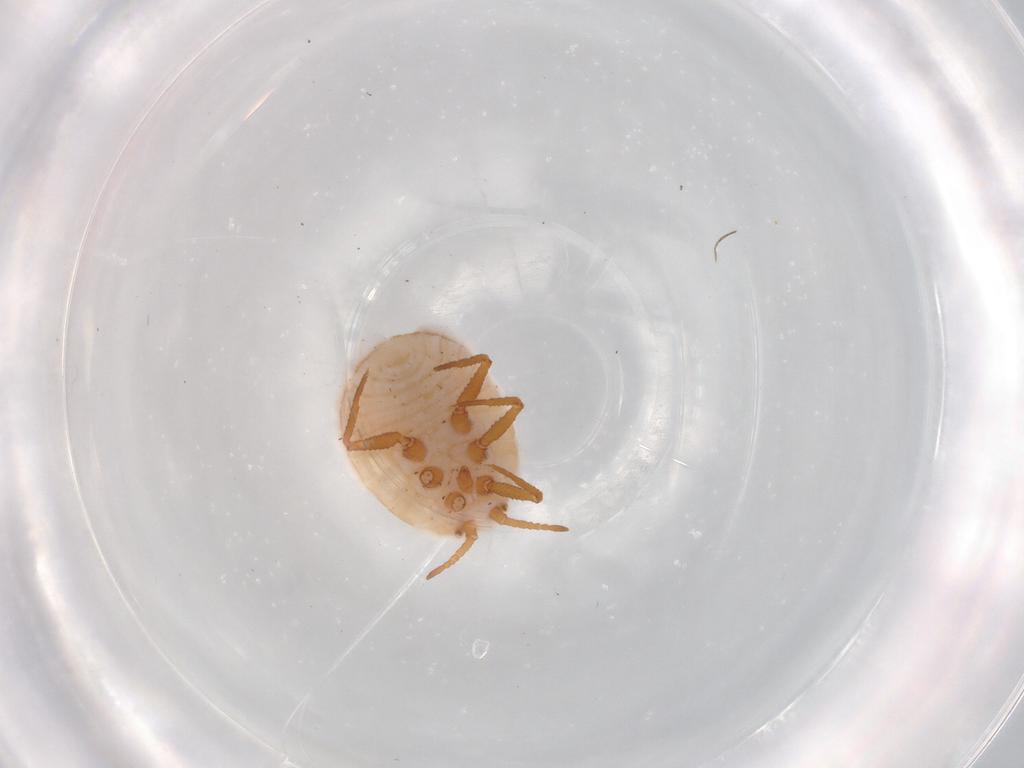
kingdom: Animalia
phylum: Arthropoda
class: Insecta
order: Hemiptera
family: Ortheziidae
